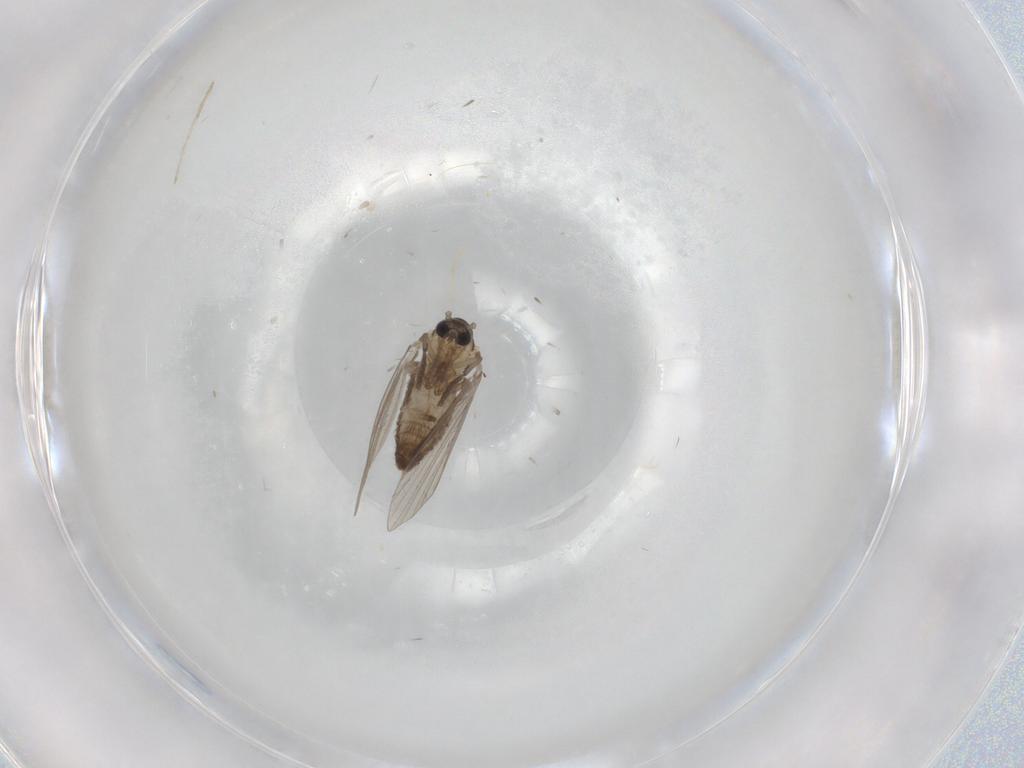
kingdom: Animalia
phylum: Arthropoda
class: Insecta
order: Diptera
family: Drosophilidae
